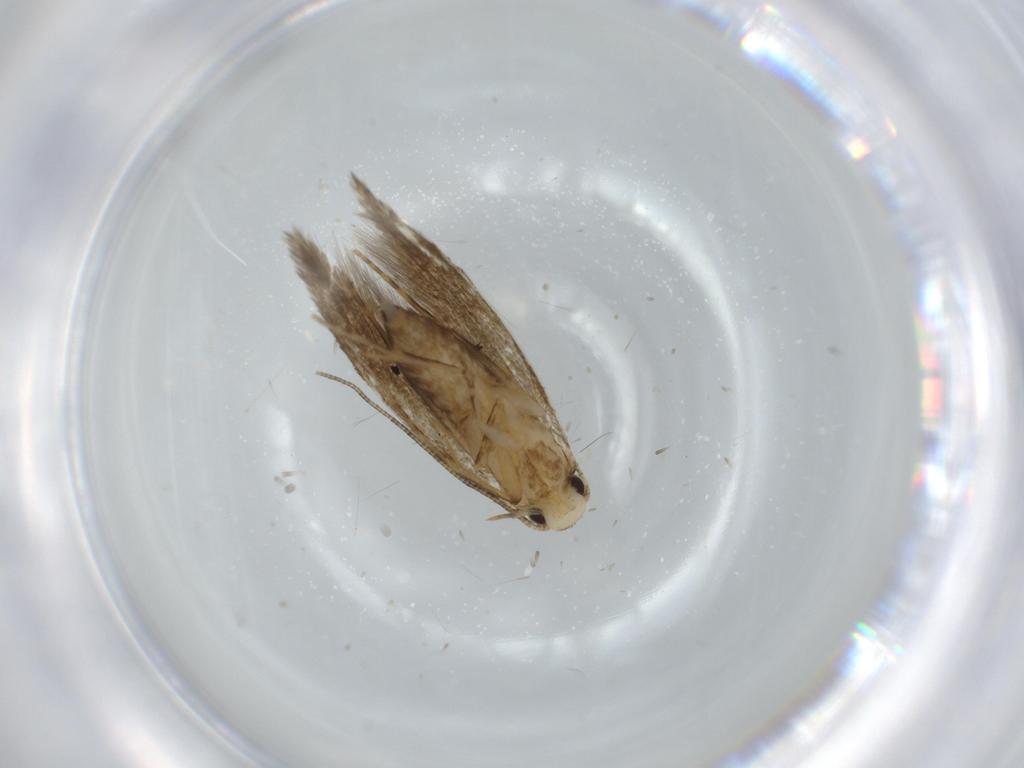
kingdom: Animalia
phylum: Arthropoda
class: Insecta
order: Lepidoptera
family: Tineidae
